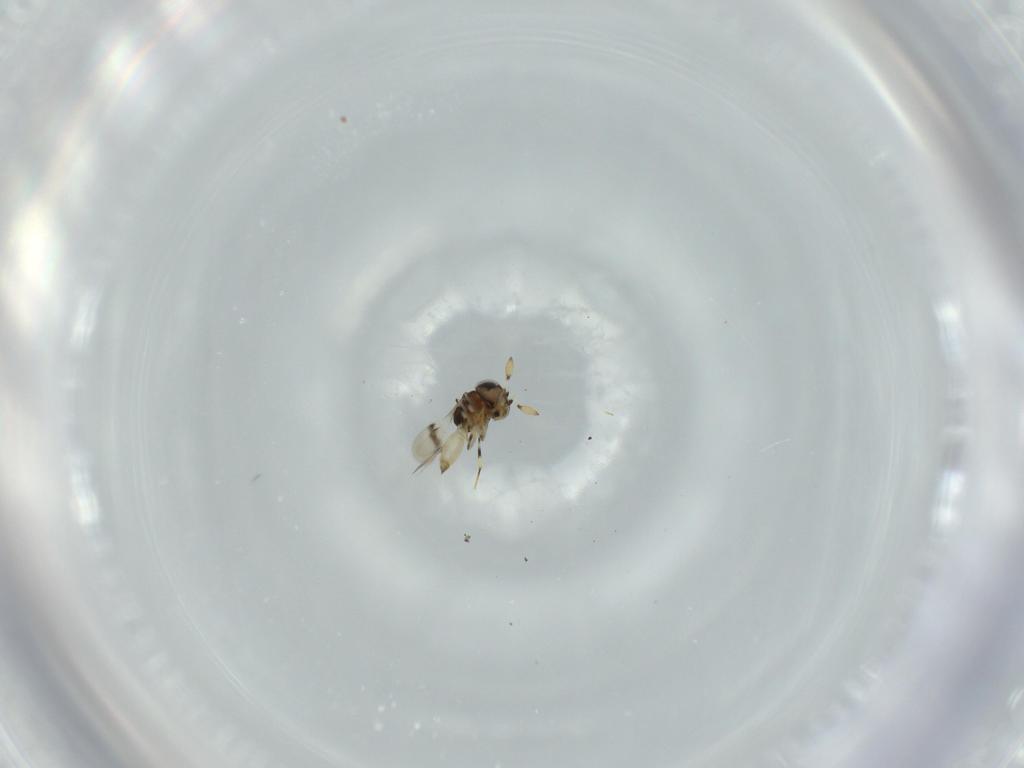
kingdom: Animalia
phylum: Arthropoda
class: Insecta
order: Hymenoptera
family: Scelionidae
